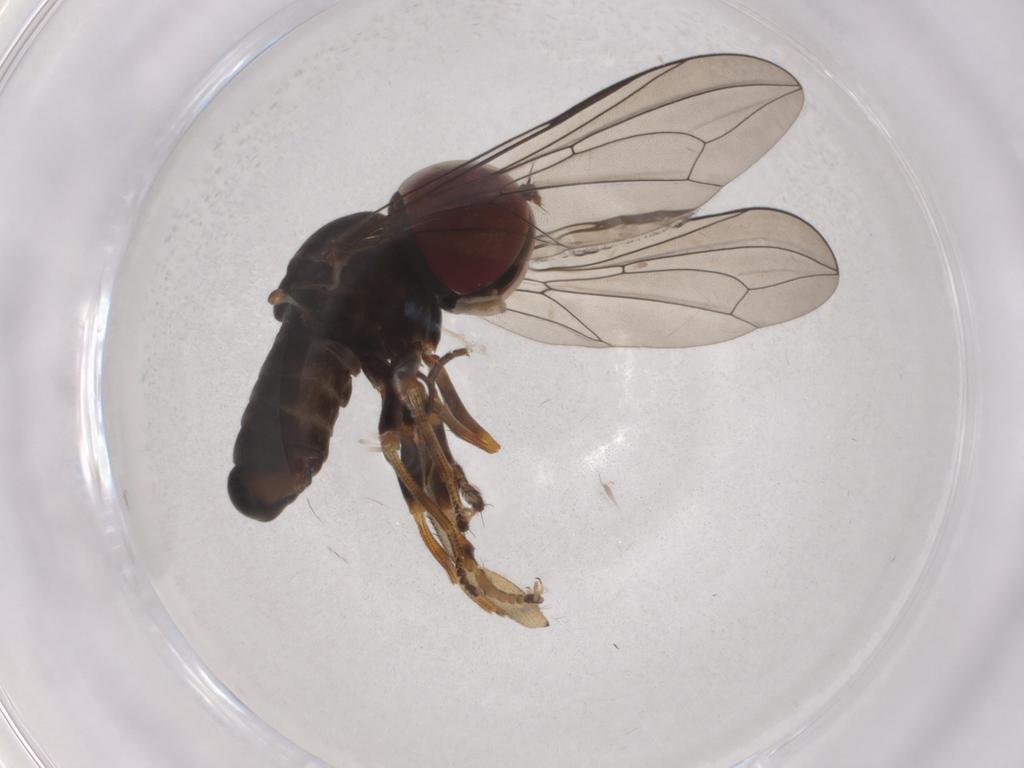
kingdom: Animalia
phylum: Arthropoda
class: Insecta
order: Diptera
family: Pipunculidae
